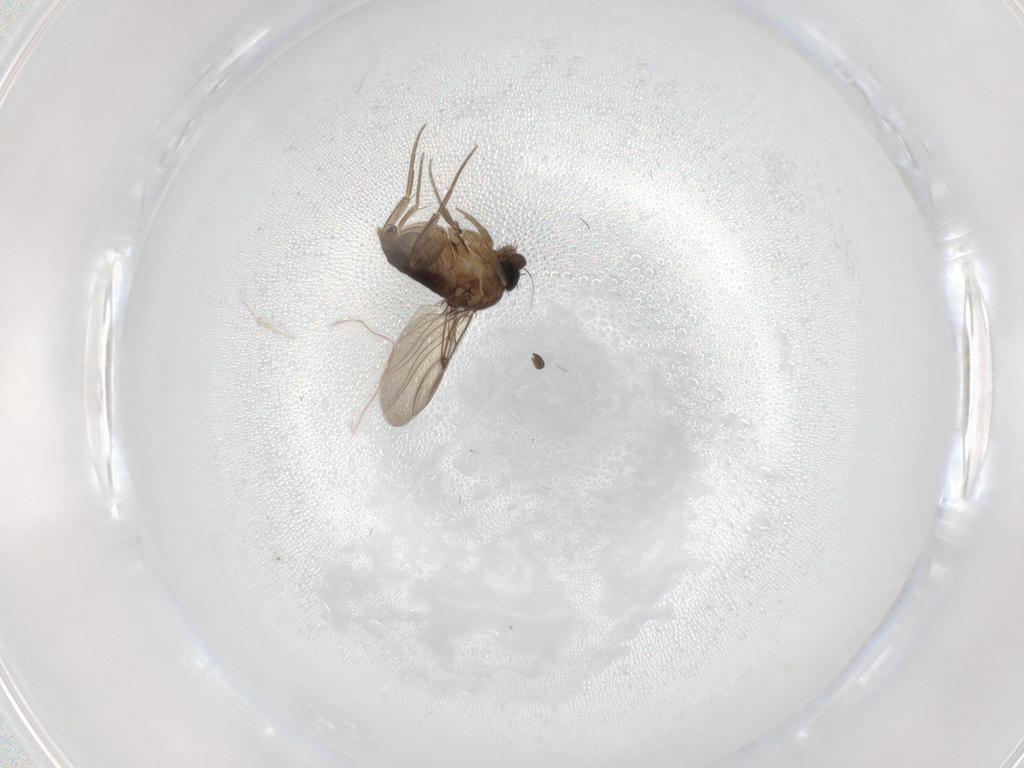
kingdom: Animalia
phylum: Arthropoda
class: Insecta
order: Diptera
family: Phoridae
